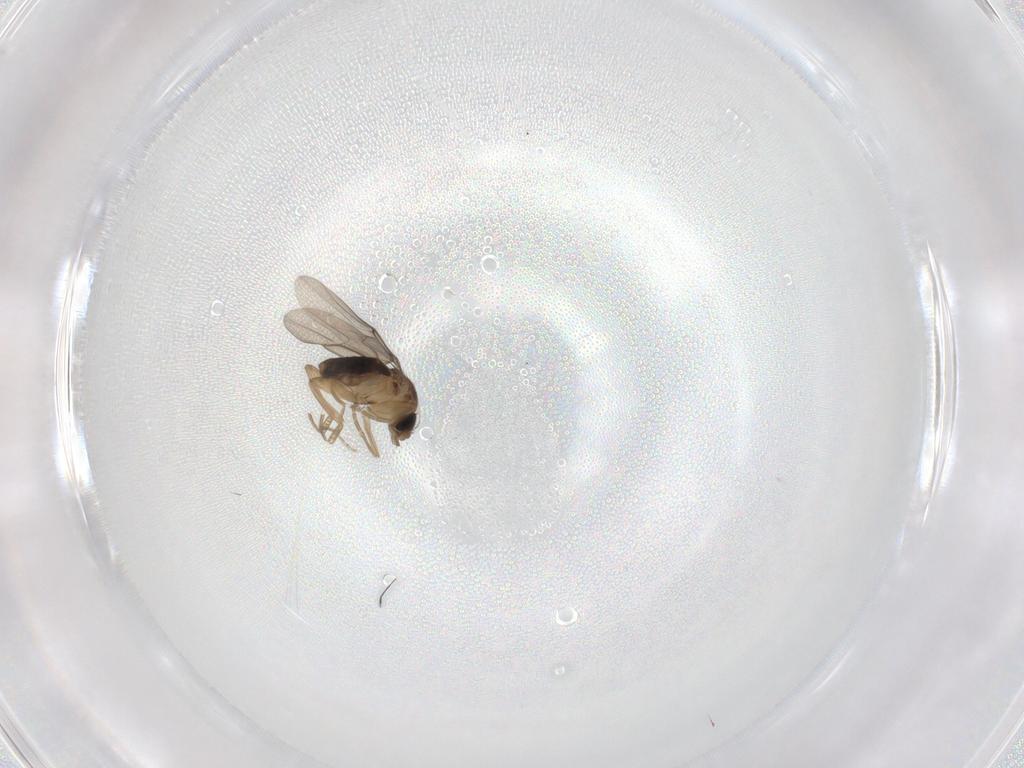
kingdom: Animalia
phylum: Arthropoda
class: Insecta
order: Diptera
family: Phoridae
